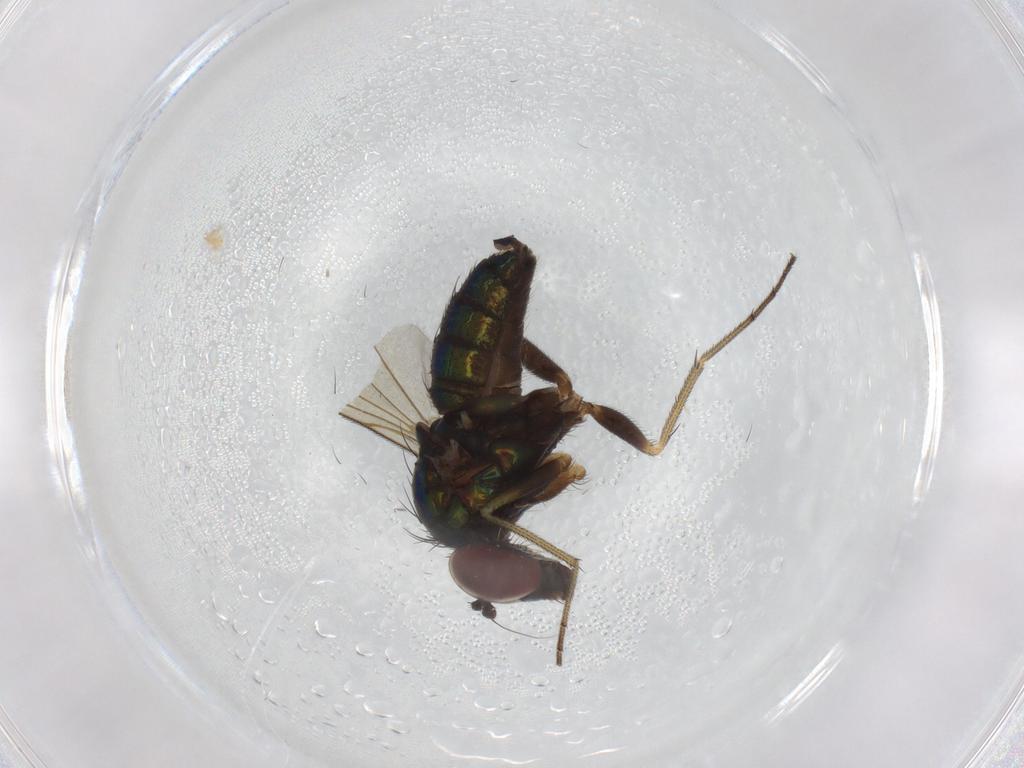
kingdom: Animalia
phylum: Arthropoda
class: Insecta
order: Diptera
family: Dolichopodidae
